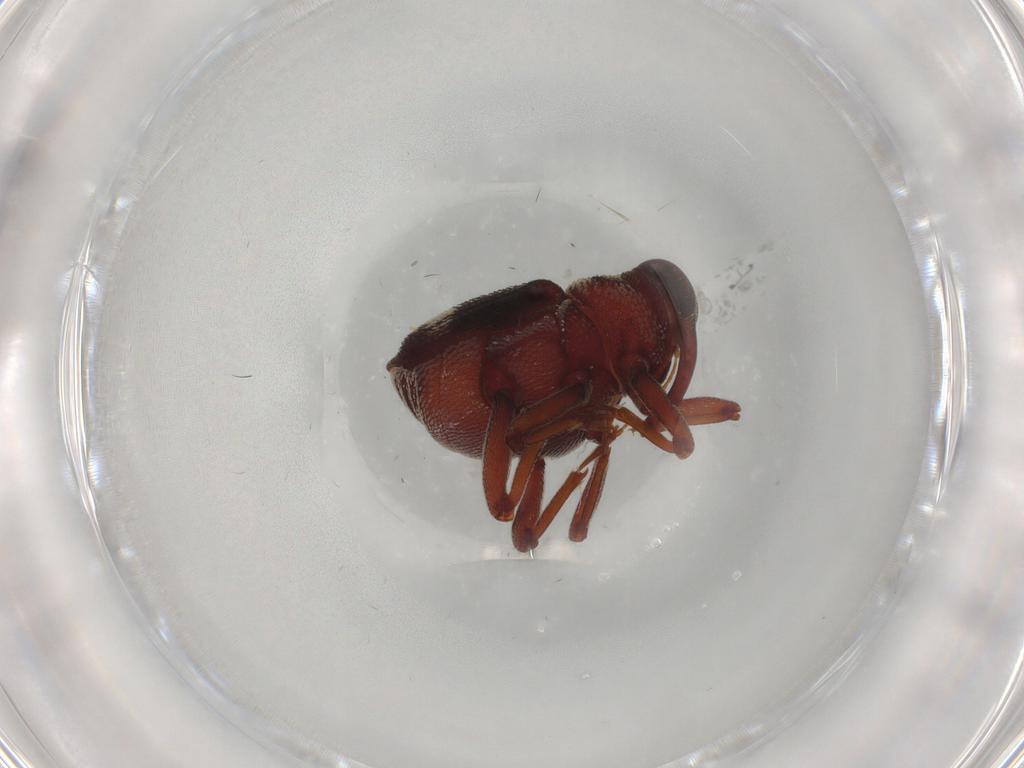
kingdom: Animalia
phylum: Arthropoda
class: Insecta
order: Coleoptera
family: Curculionidae
